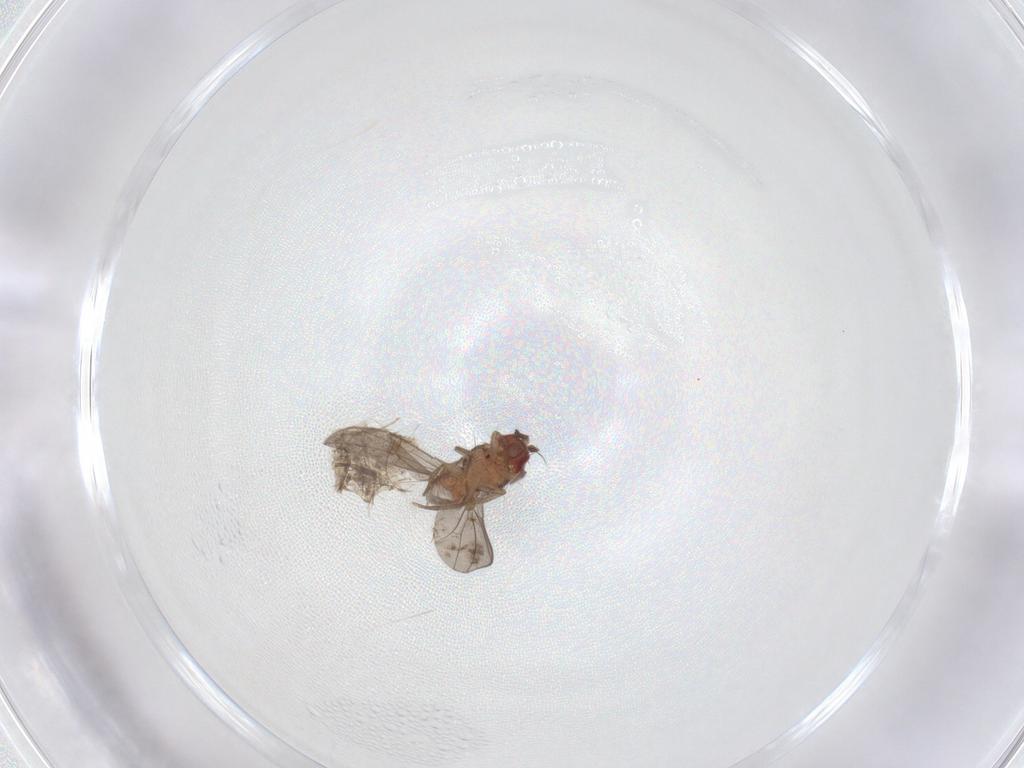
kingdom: Animalia
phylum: Arthropoda
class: Insecta
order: Diptera
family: Drosophilidae
